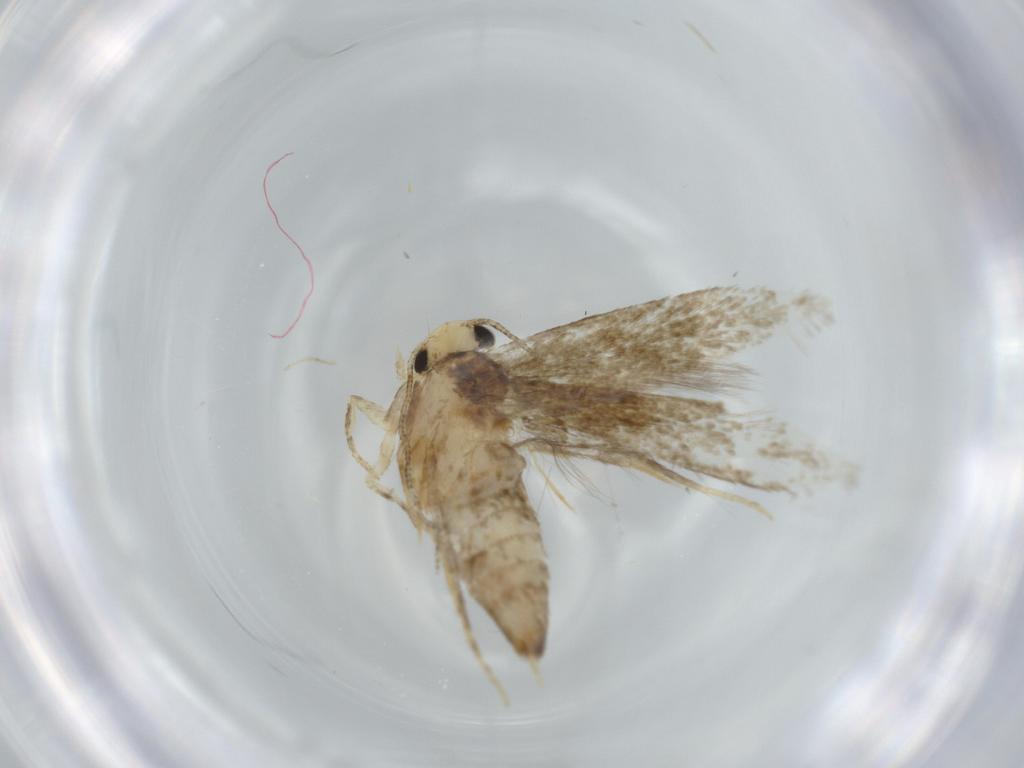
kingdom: Animalia
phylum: Arthropoda
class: Insecta
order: Lepidoptera
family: Tineidae
